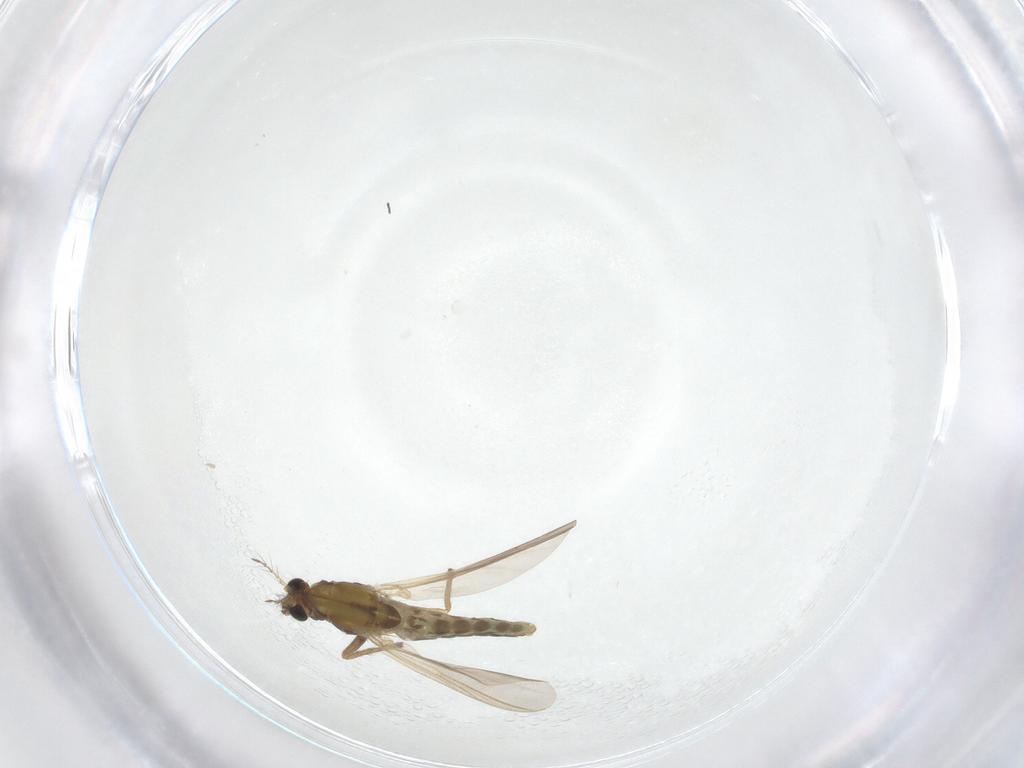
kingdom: Animalia
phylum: Arthropoda
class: Insecta
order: Diptera
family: Chironomidae
